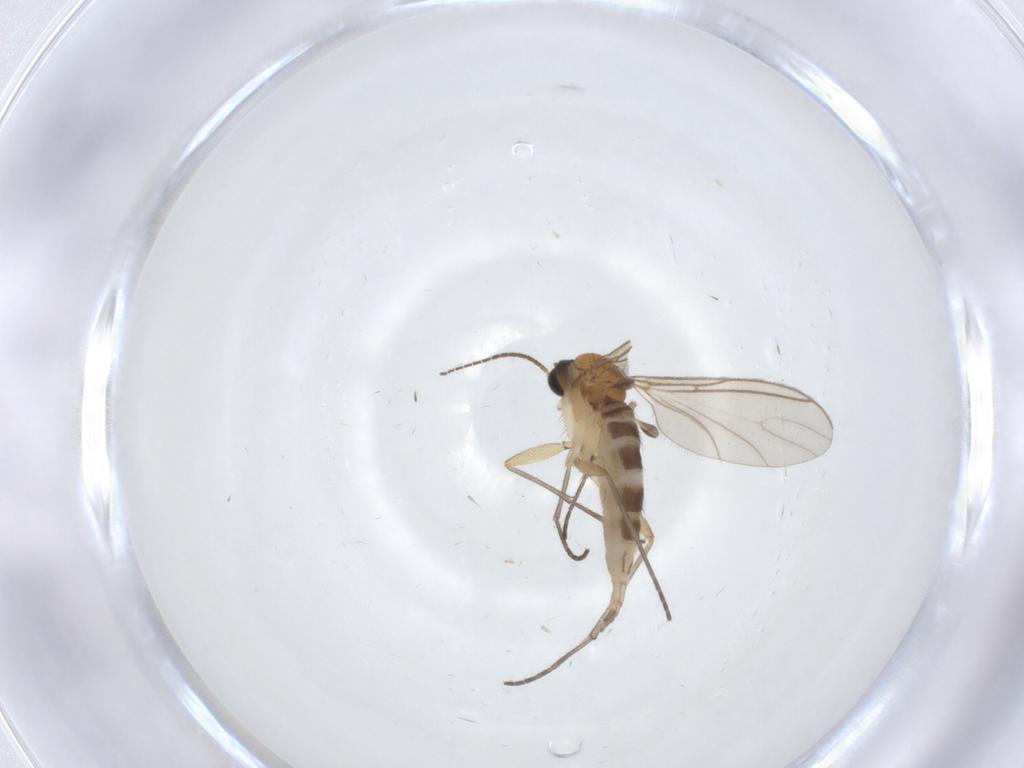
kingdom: Animalia
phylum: Arthropoda
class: Insecta
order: Diptera
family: Sciaridae
